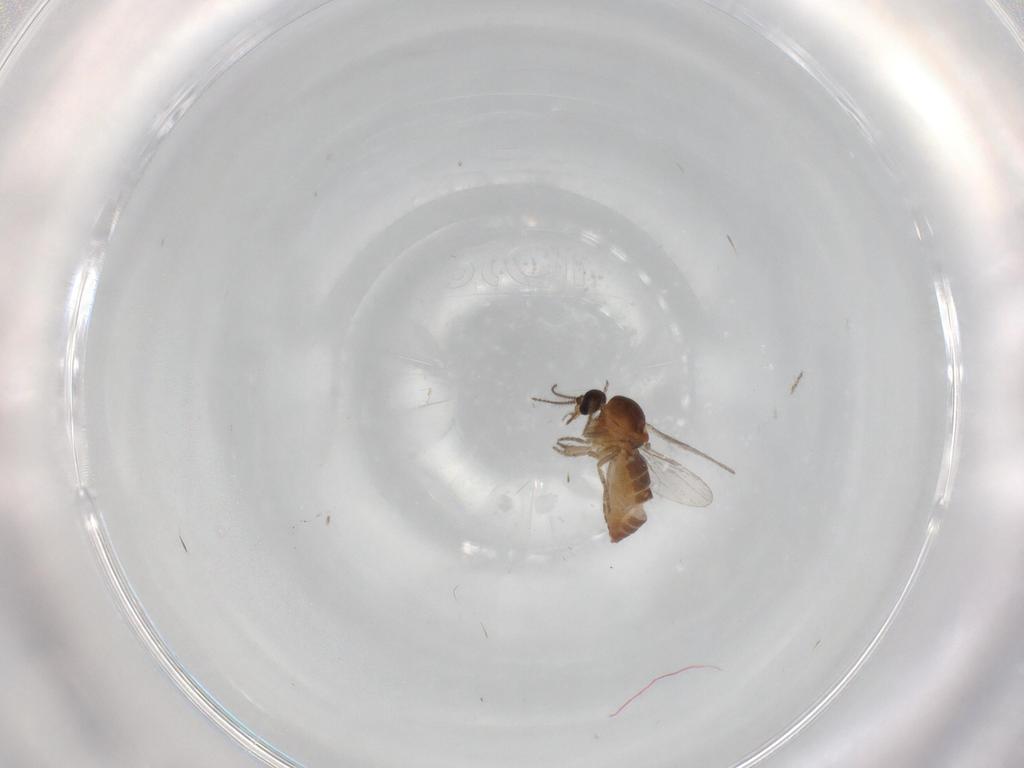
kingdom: Animalia
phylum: Arthropoda
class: Insecta
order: Diptera
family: Ceratopogonidae
